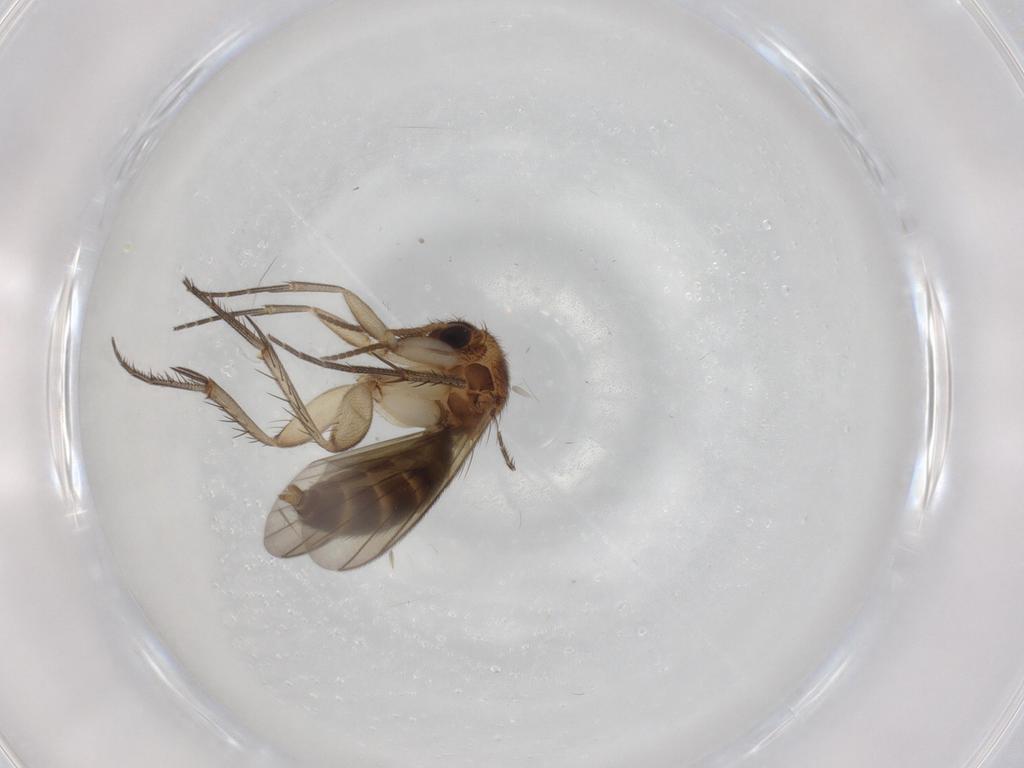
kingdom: Animalia
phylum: Arthropoda
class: Insecta
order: Diptera
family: Mycetophilidae
